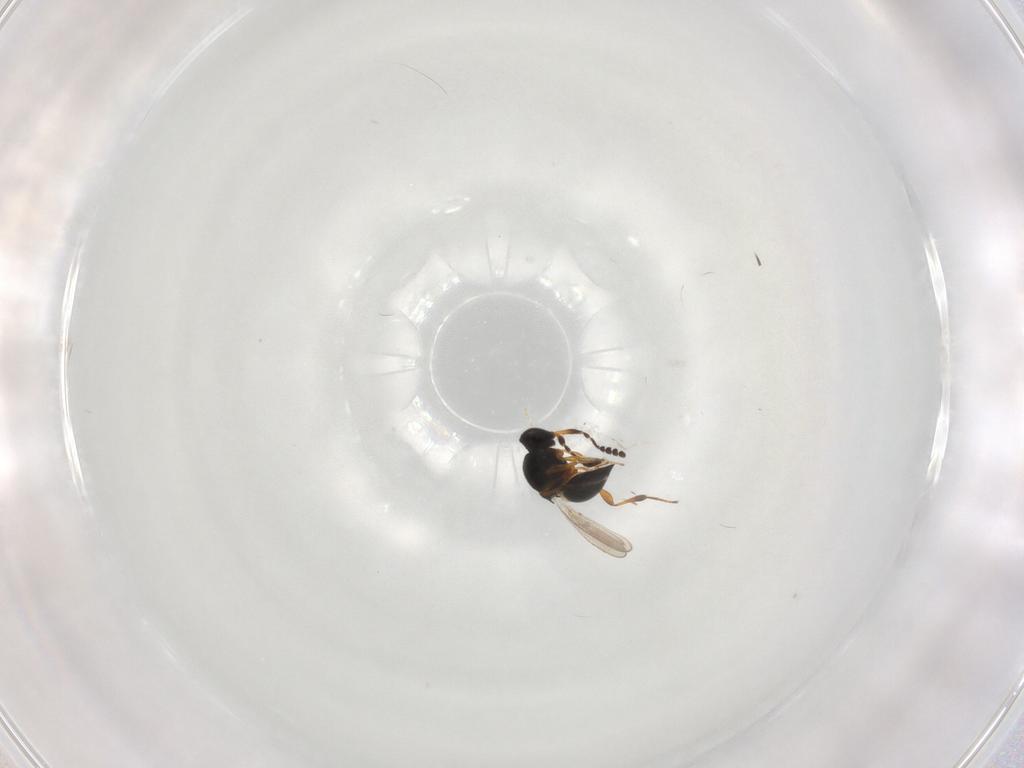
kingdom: Animalia
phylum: Arthropoda
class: Insecta
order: Hymenoptera
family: Platygastridae
